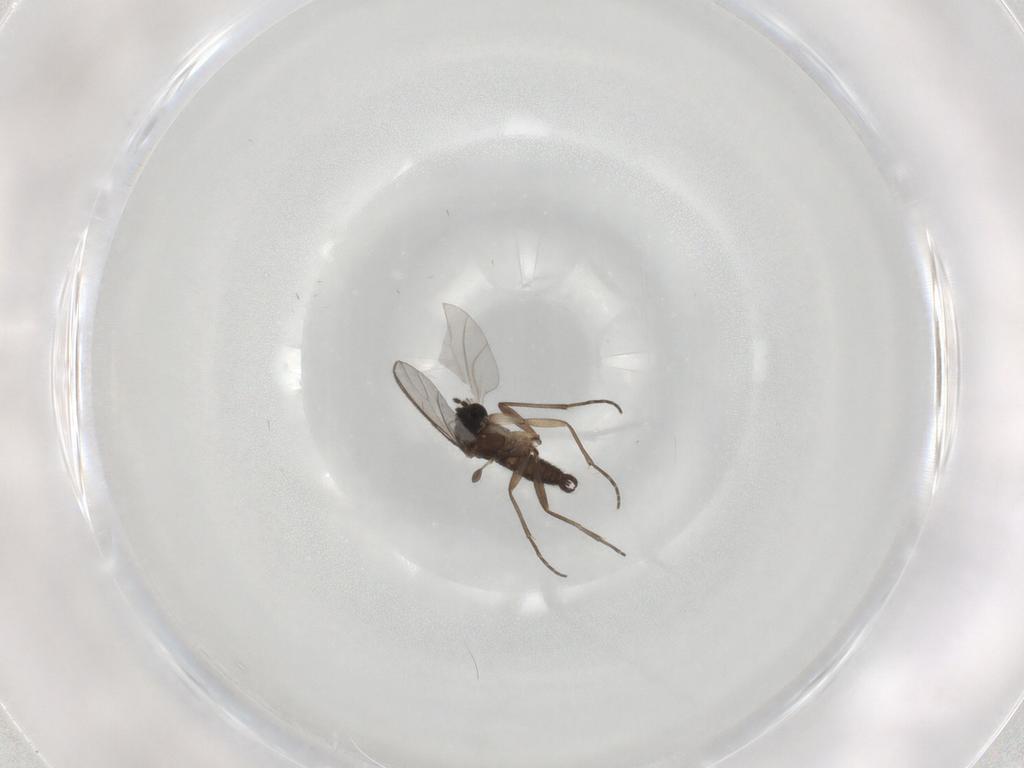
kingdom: Animalia
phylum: Arthropoda
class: Insecta
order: Diptera
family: Sciaridae
